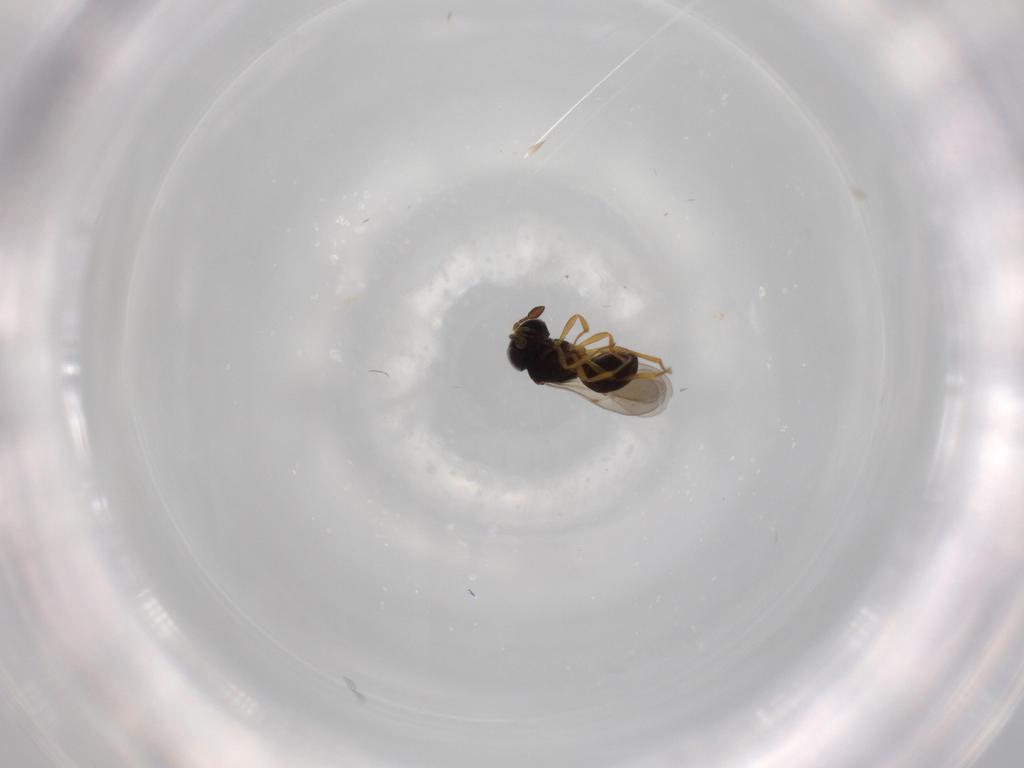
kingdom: Animalia
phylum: Arthropoda
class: Insecta
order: Hymenoptera
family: Scelionidae
